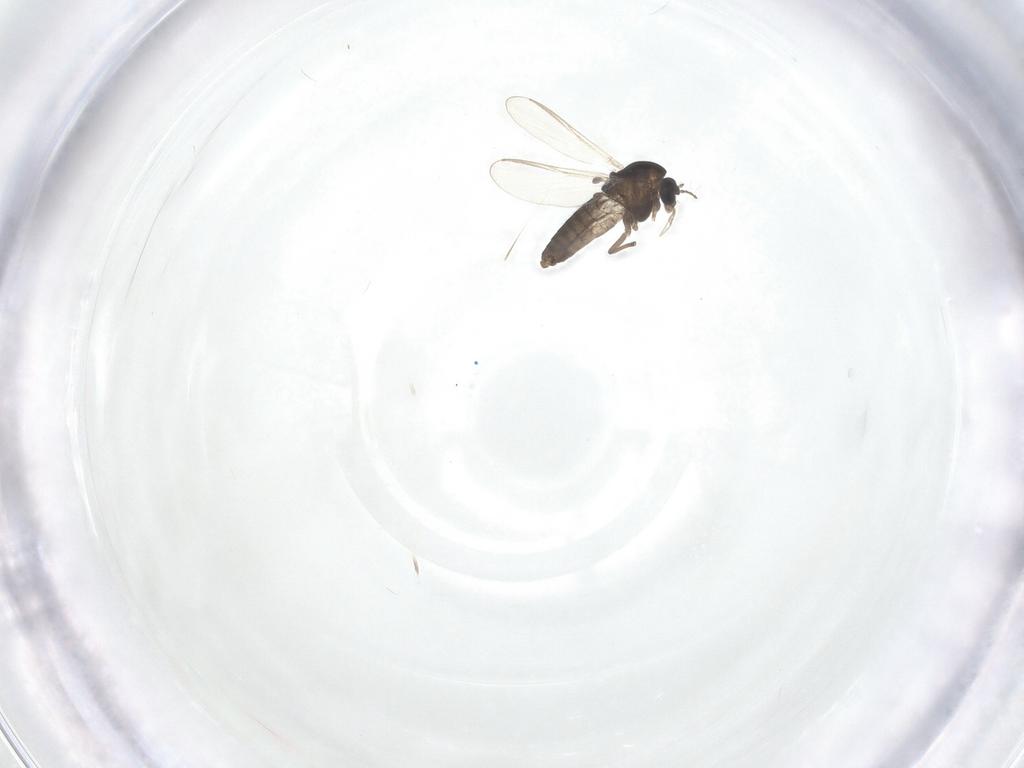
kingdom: Animalia
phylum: Arthropoda
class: Insecta
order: Diptera
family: Chironomidae
